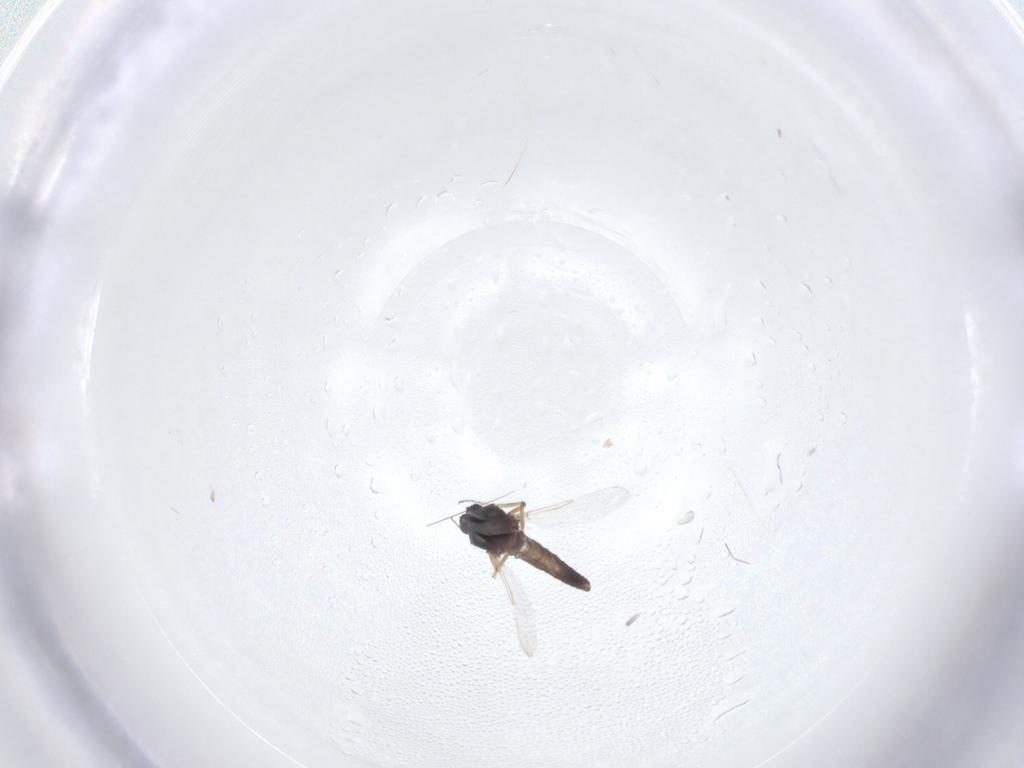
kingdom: Animalia
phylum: Arthropoda
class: Insecta
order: Diptera
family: Ceratopogonidae
